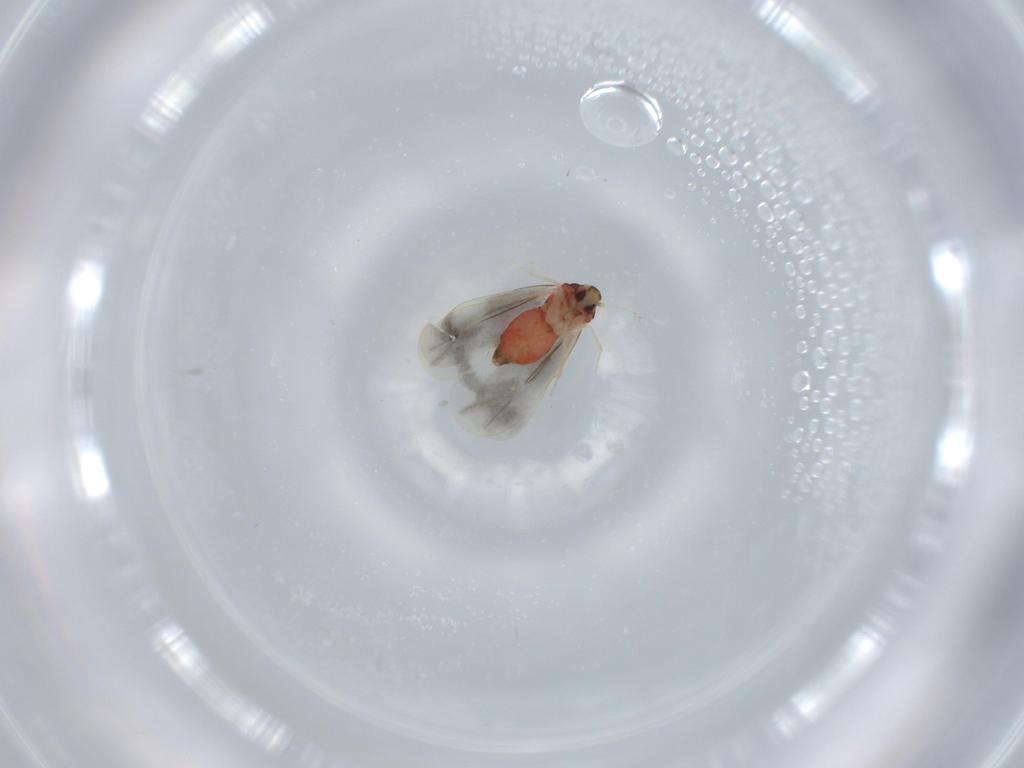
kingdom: Animalia
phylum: Arthropoda
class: Insecta
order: Hemiptera
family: Aleyrodidae
